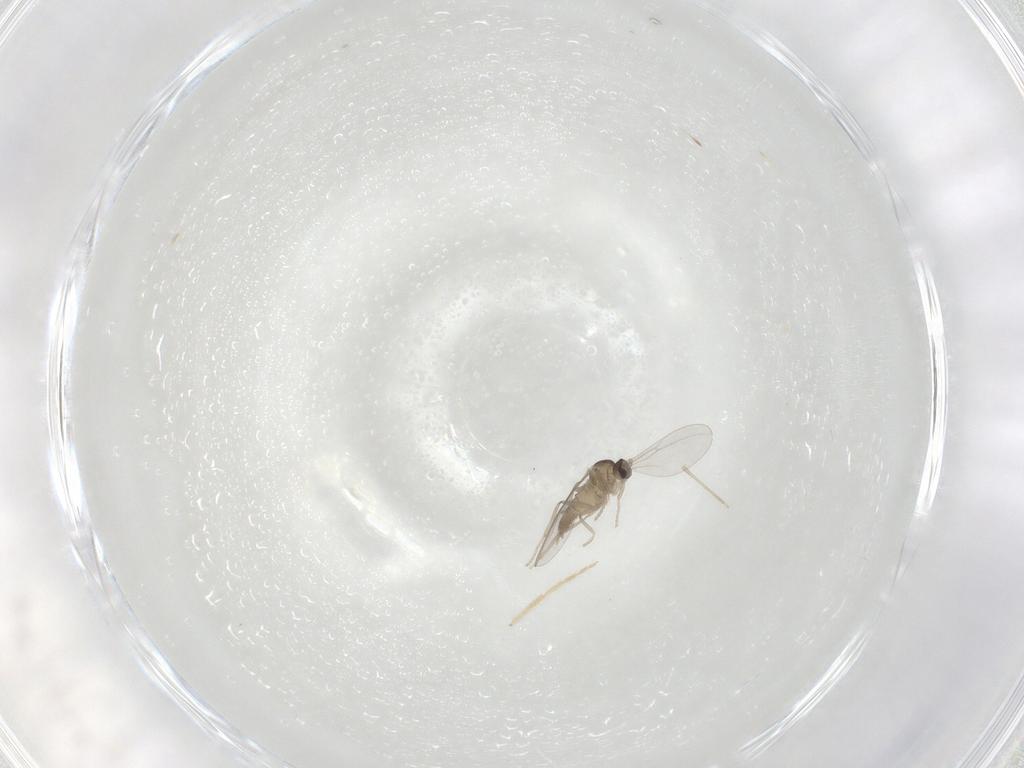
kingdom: Animalia
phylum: Arthropoda
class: Insecta
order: Diptera
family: Cecidomyiidae
